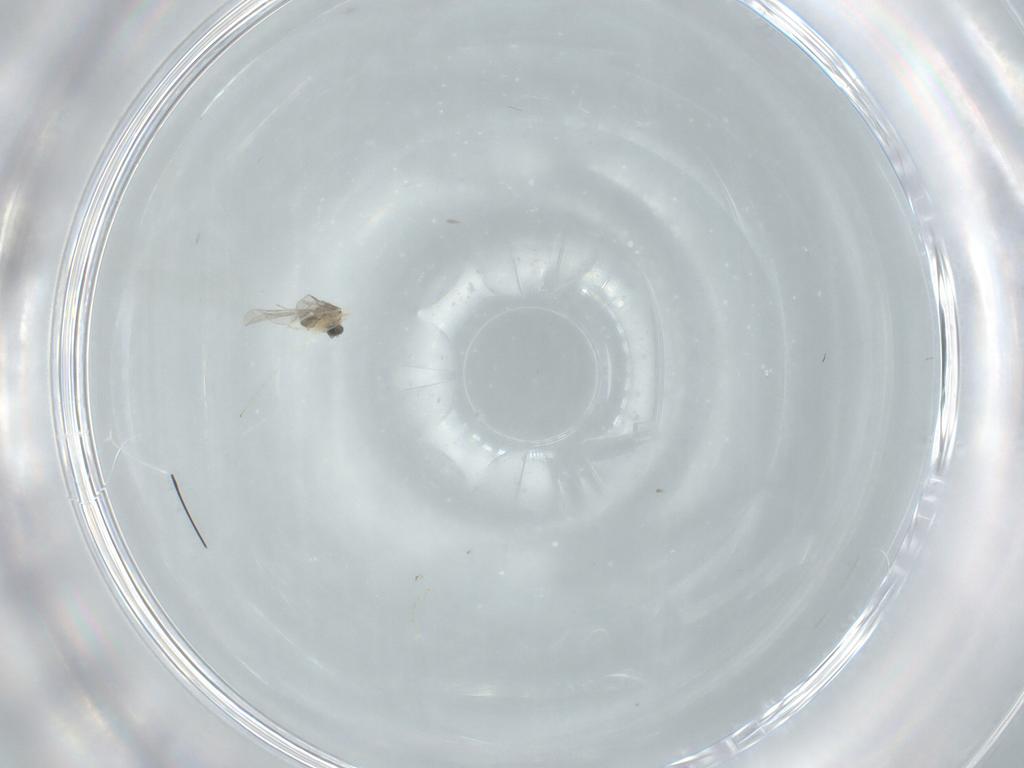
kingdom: Animalia
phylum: Arthropoda
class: Insecta
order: Diptera
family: Cecidomyiidae
